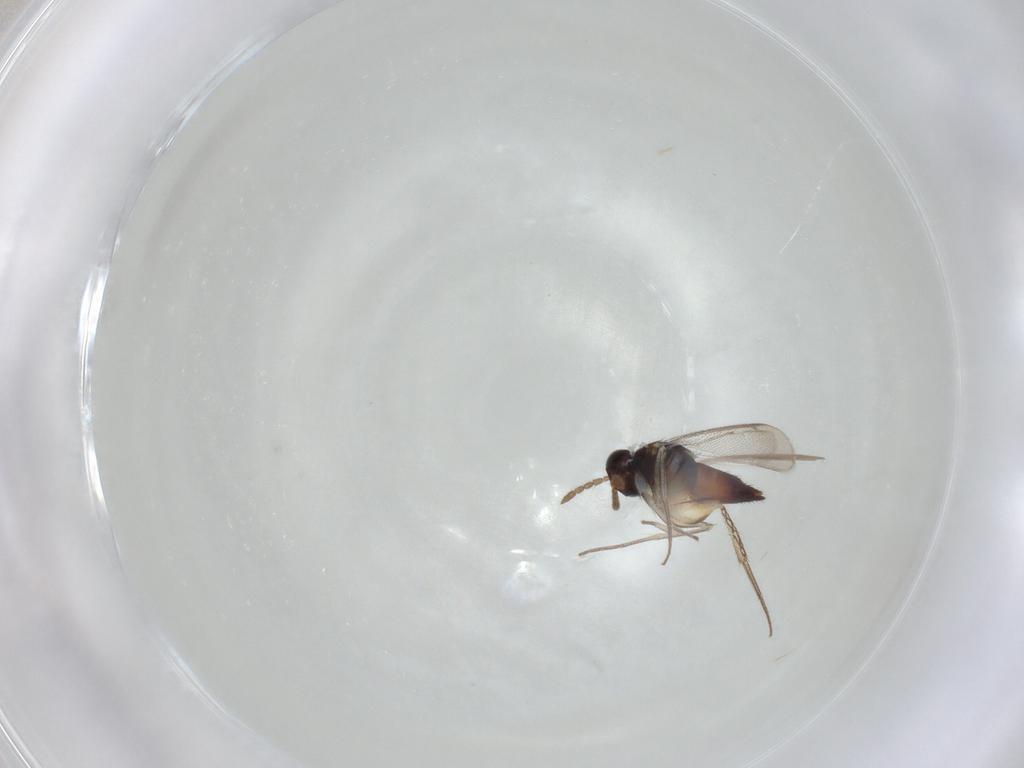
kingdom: Animalia
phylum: Arthropoda
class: Insecta
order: Hymenoptera
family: Eulophidae
